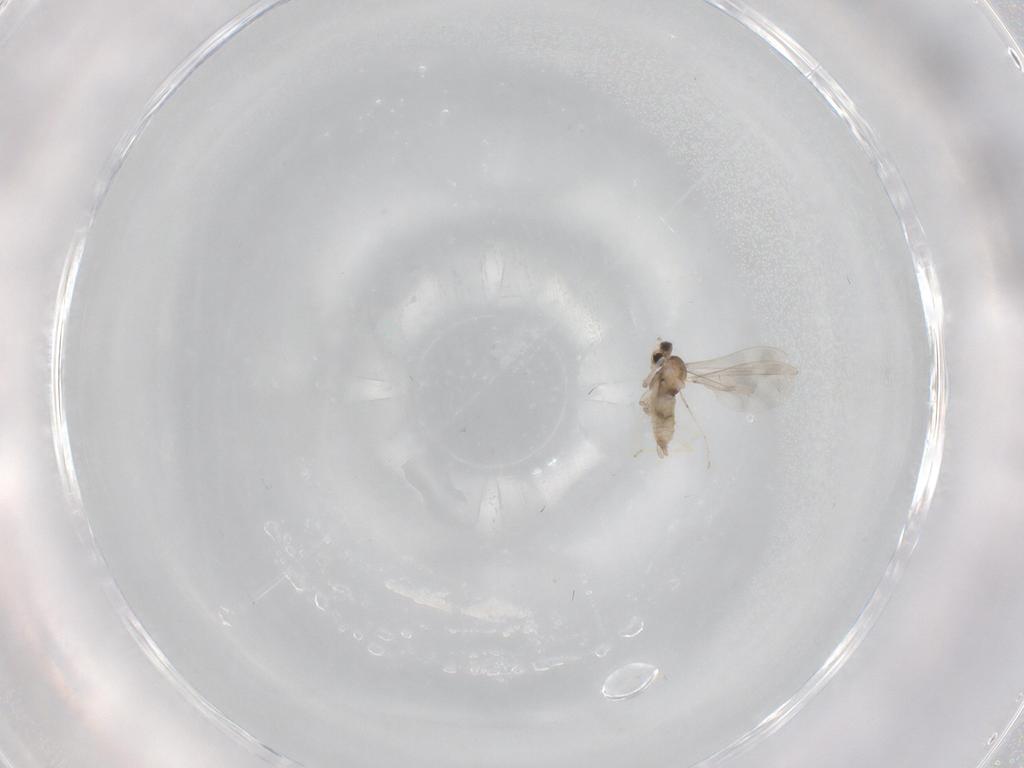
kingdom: Animalia
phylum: Arthropoda
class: Insecta
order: Diptera
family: Cecidomyiidae
